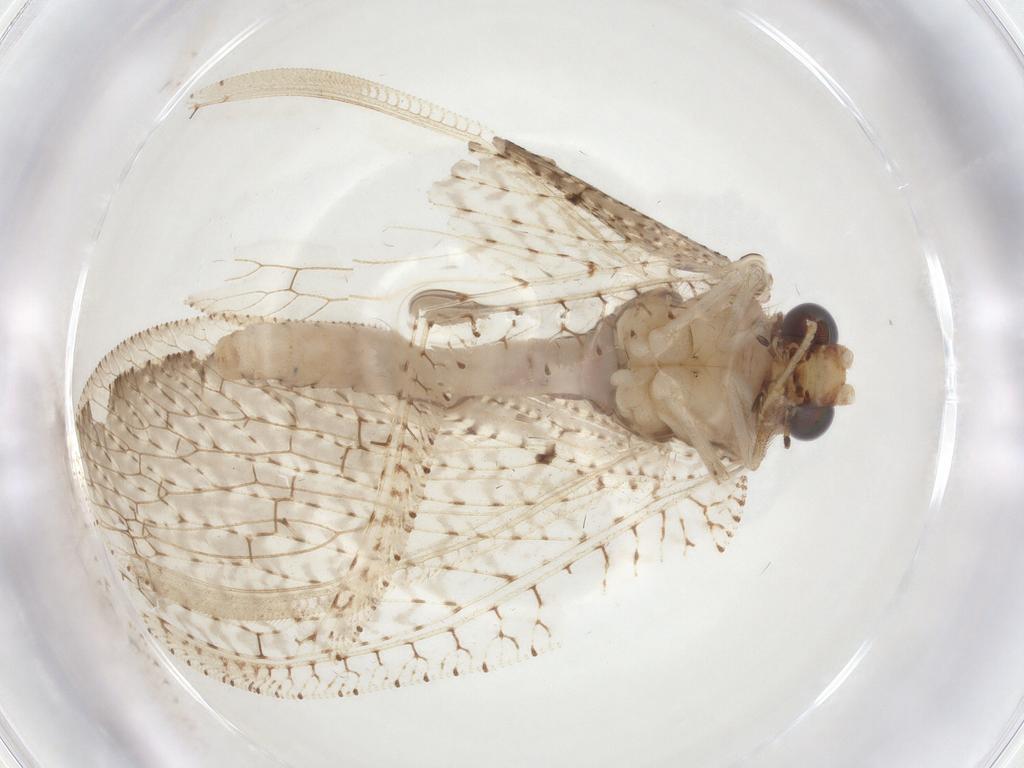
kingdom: Animalia
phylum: Arthropoda
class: Insecta
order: Neuroptera
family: Hemerobiidae
